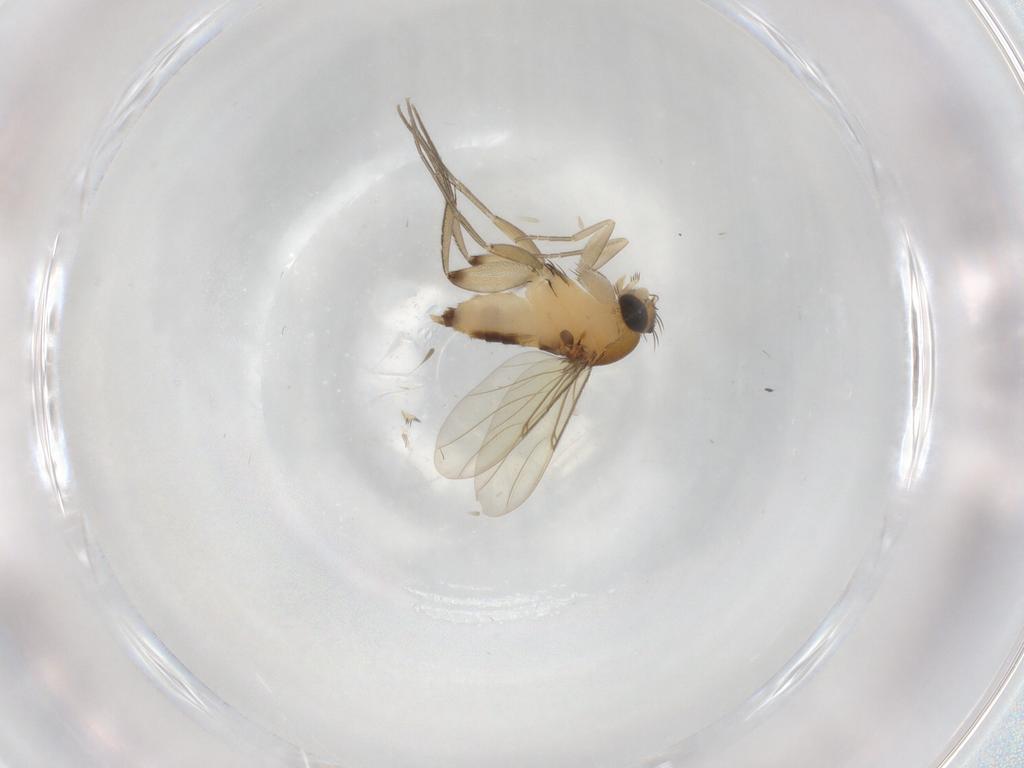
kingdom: Animalia
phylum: Arthropoda
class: Insecta
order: Diptera
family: Phoridae
